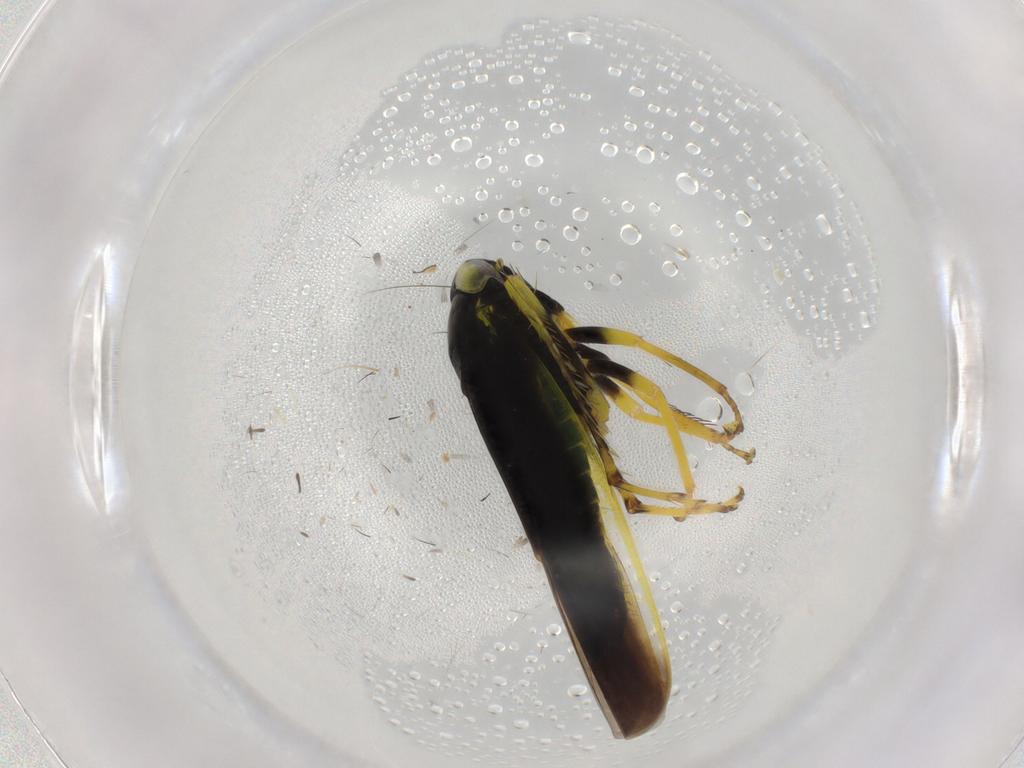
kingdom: Animalia
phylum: Arthropoda
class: Insecta
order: Hemiptera
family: Cicadellidae
